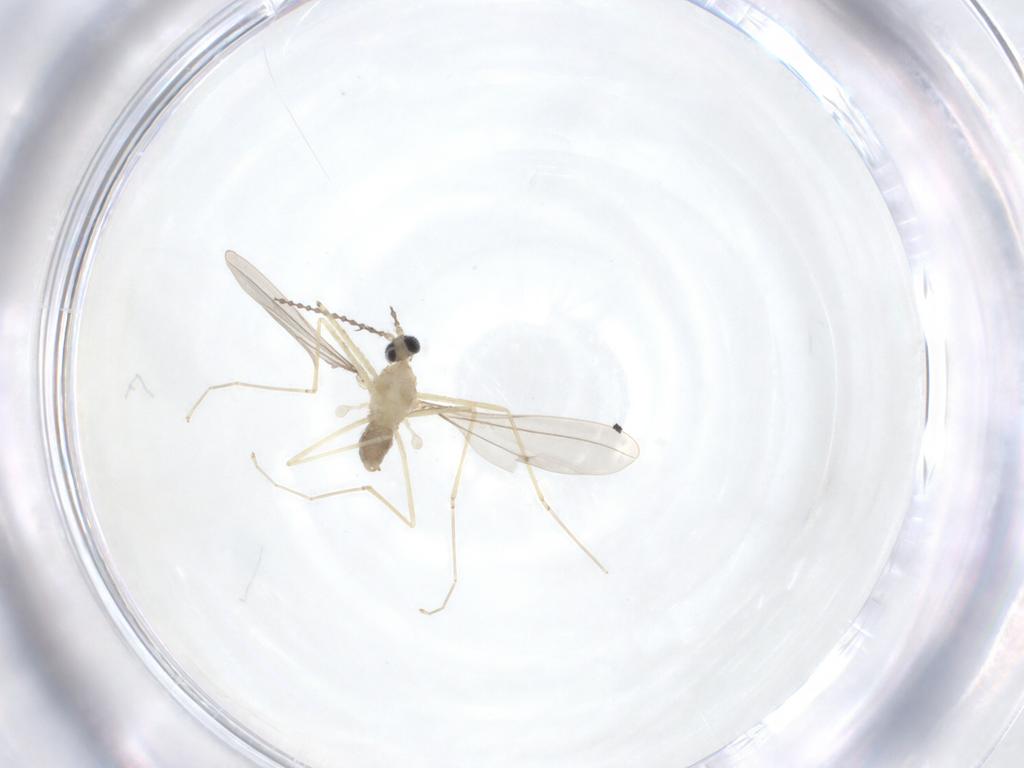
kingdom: Animalia
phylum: Arthropoda
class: Insecta
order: Diptera
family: Cecidomyiidae
